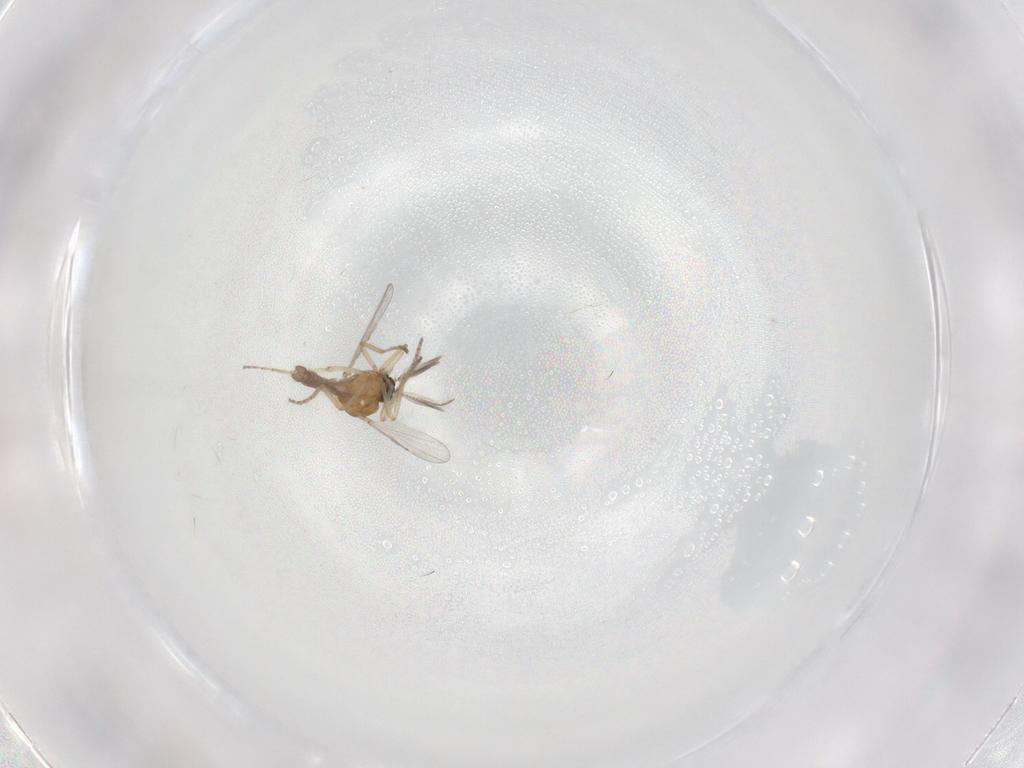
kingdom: Animalia
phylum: Arthropoda
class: Insecta
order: Diptera
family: Ceratopogonidae
